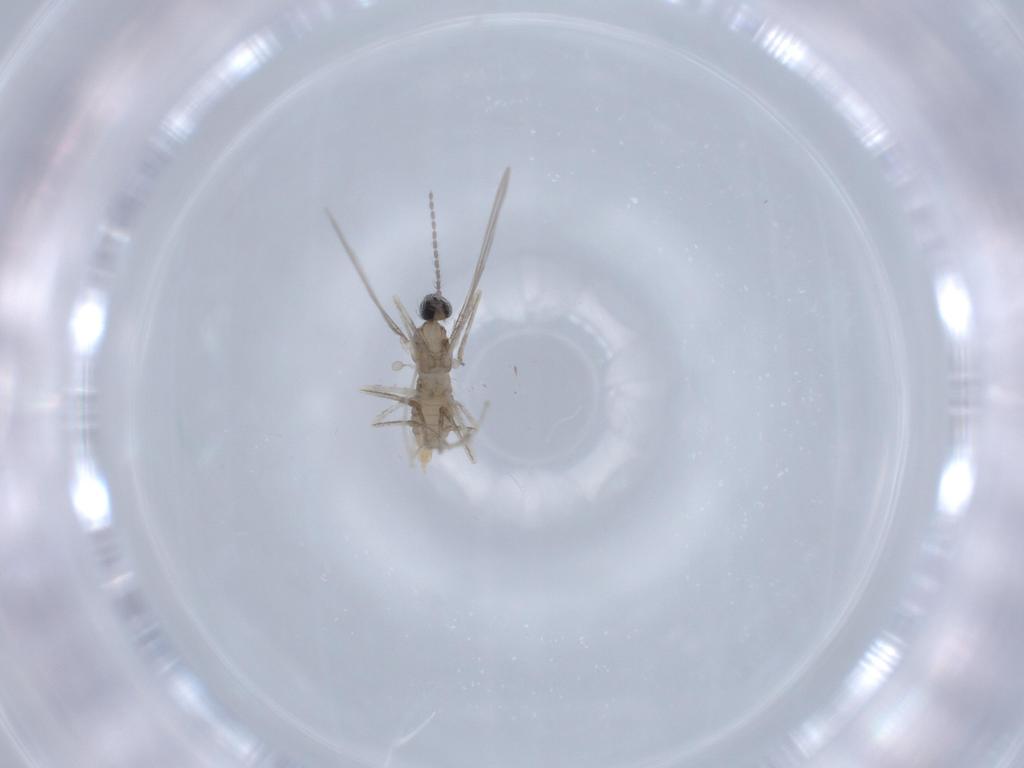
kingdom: Animalia
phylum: Arthropoda
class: Insecta
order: Diptera
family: Cecidomyiidae
